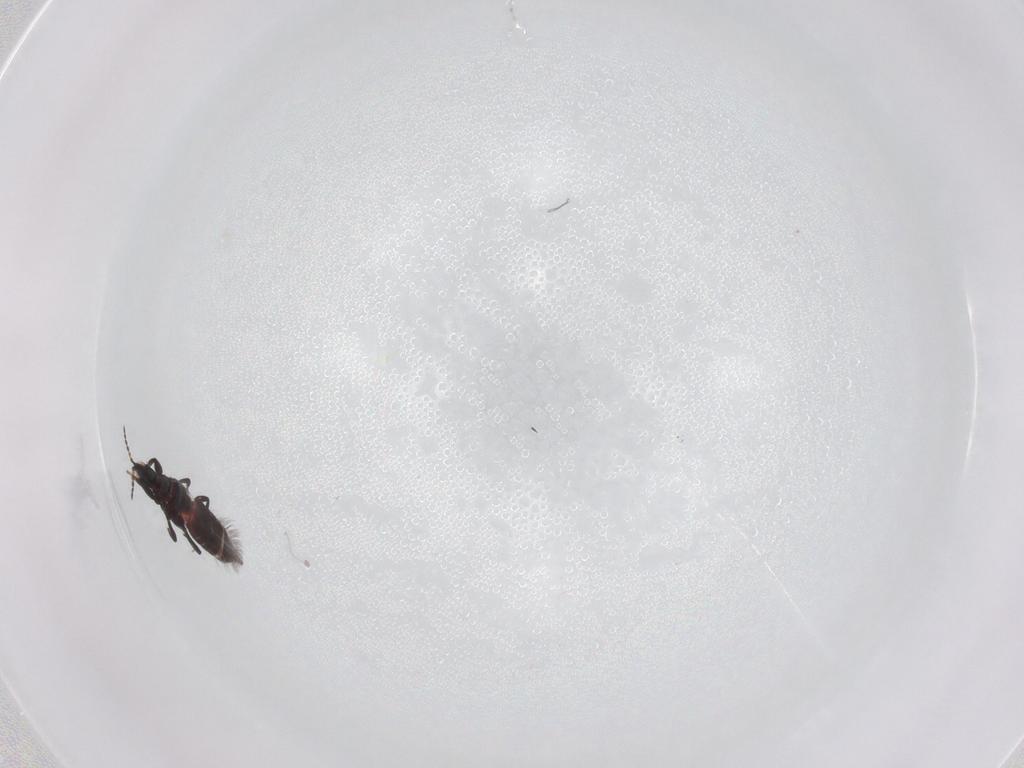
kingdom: Animalia
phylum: Arthropoda
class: Insecta
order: Thysanoptera
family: Phlaeothripidae
